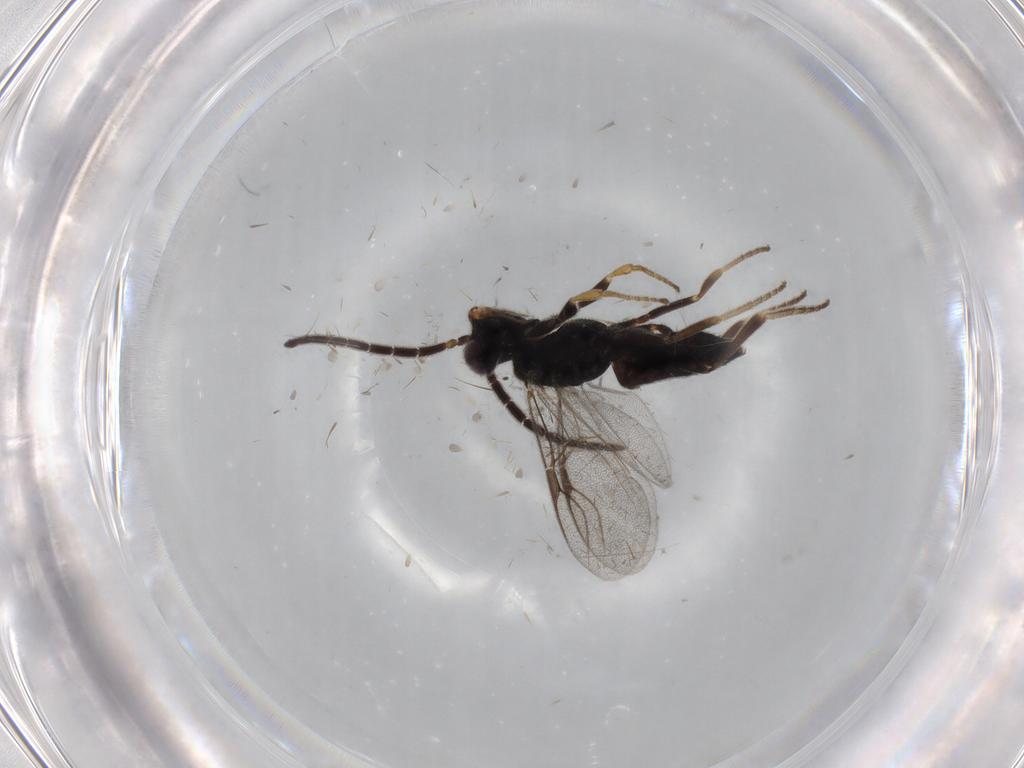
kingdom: Animalia
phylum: Arthropoda
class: Insecta
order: Hymenoptera
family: Dryinidae
